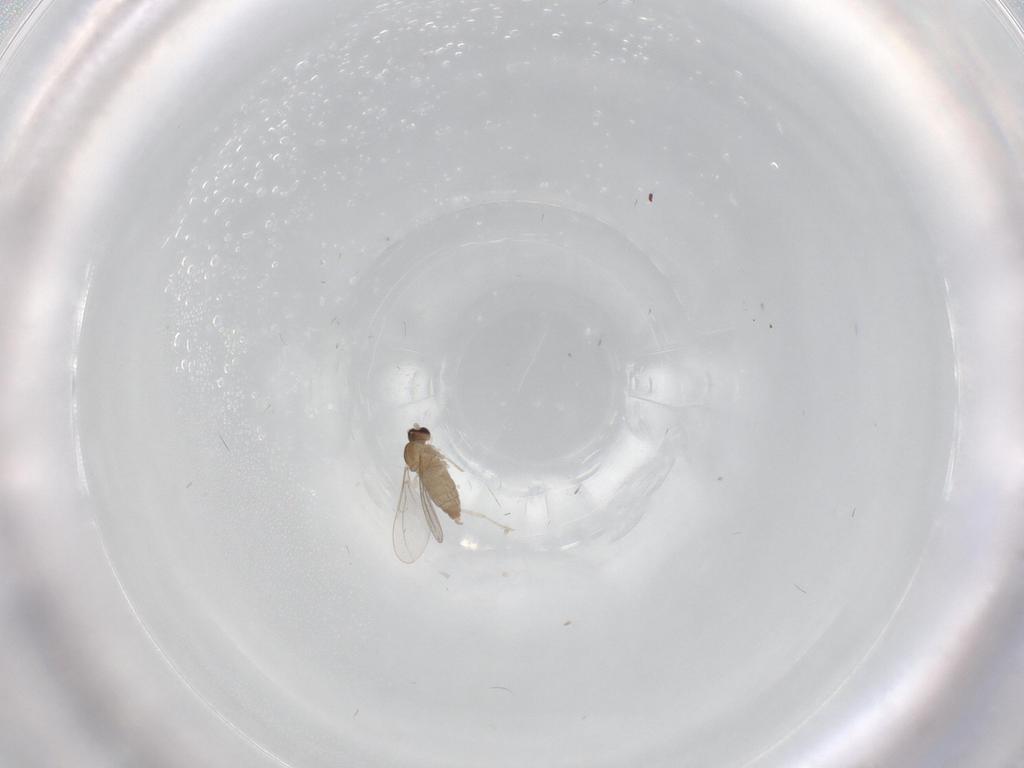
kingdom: Animalia
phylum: Arthropoda
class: Insecta
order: Diptera
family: Cecidomyiidae
